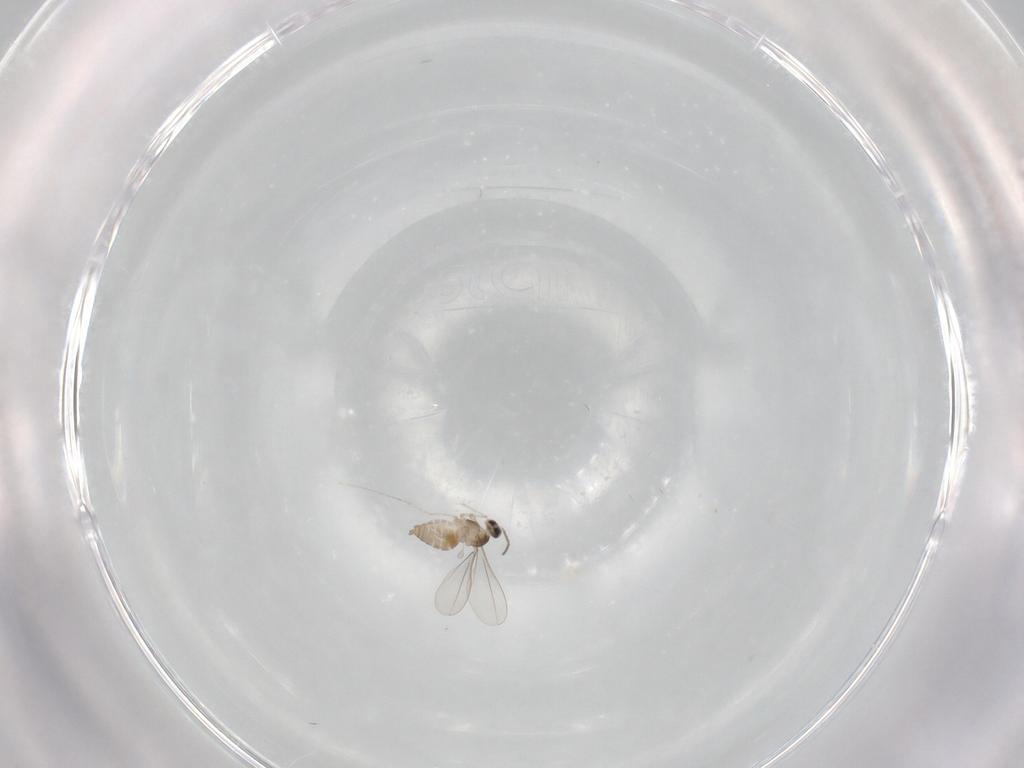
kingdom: Animalia
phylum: Arthropoda
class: Insecta
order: Diptera
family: Cecidomyiidae
